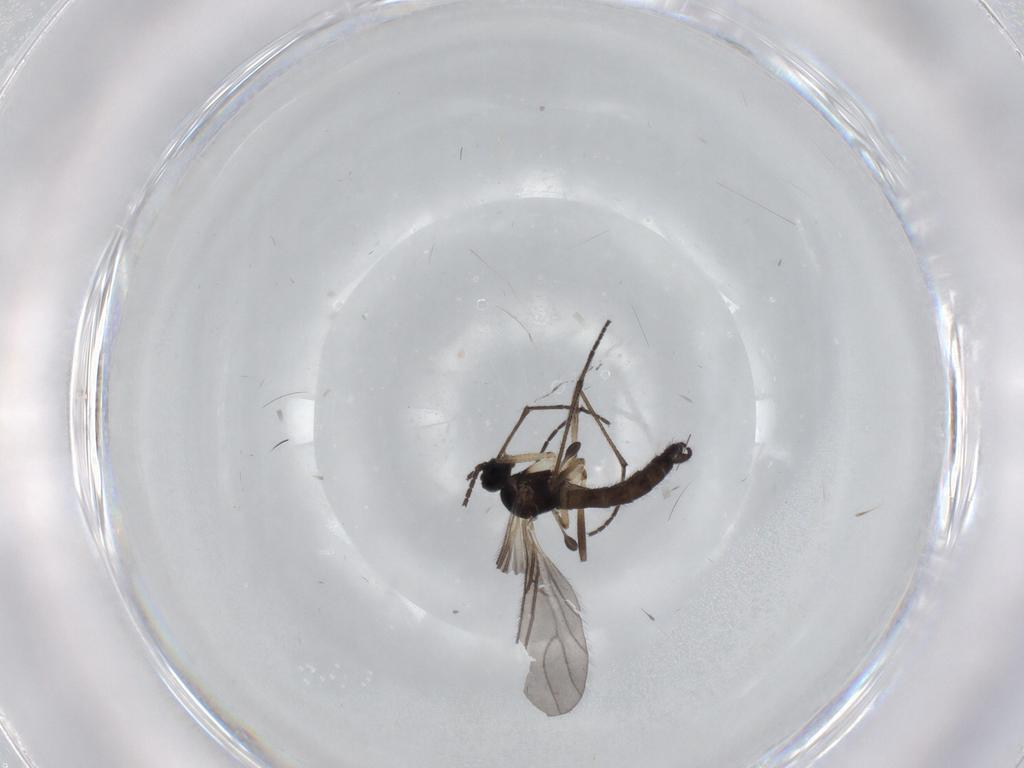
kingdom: Animalia
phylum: Arthropoda
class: Insecta
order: Diptera
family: Sciaridae
